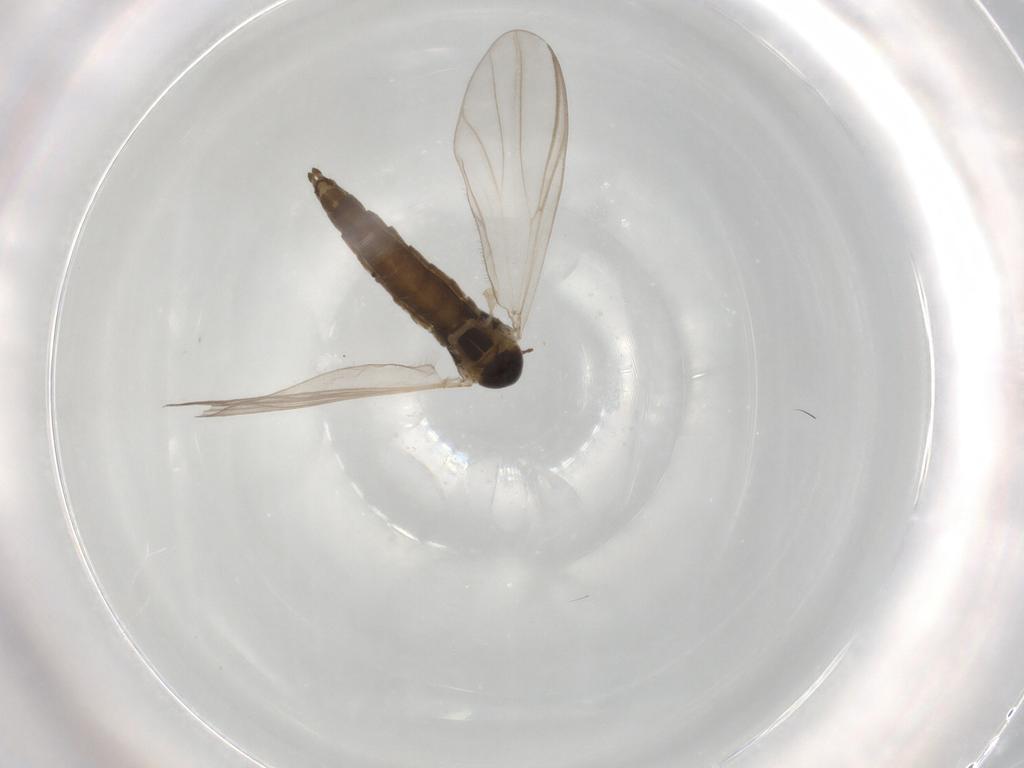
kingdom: Animalia
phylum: Arthropoda
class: Insecta
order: Diptera
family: Chironomidae
